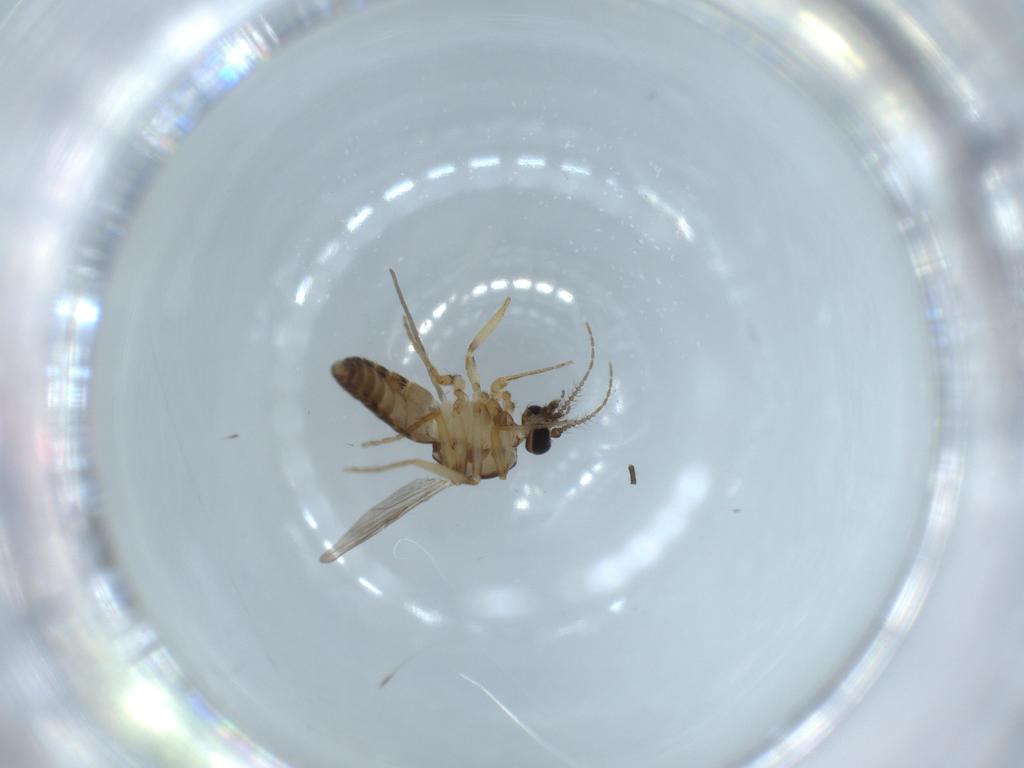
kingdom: Animalia
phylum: Arthropoda
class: Insecta
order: Diptera
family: Ceratopogonidae
